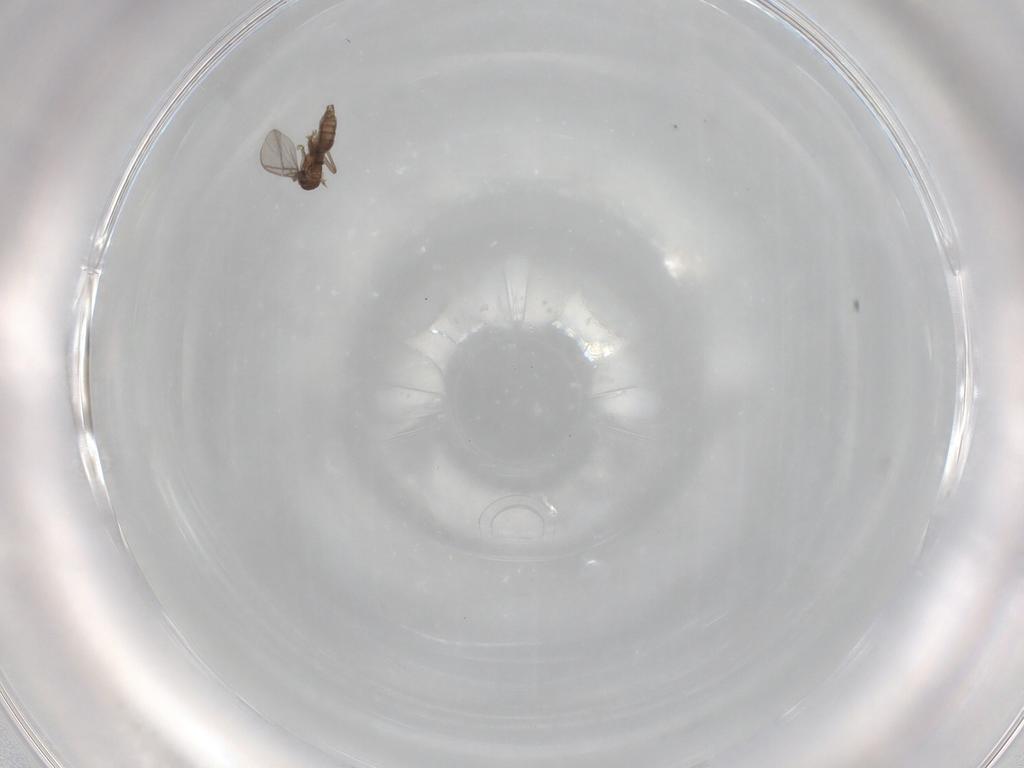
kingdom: Animalia
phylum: Arthropoda
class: Insecta
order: Diptera
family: Sciaridae
